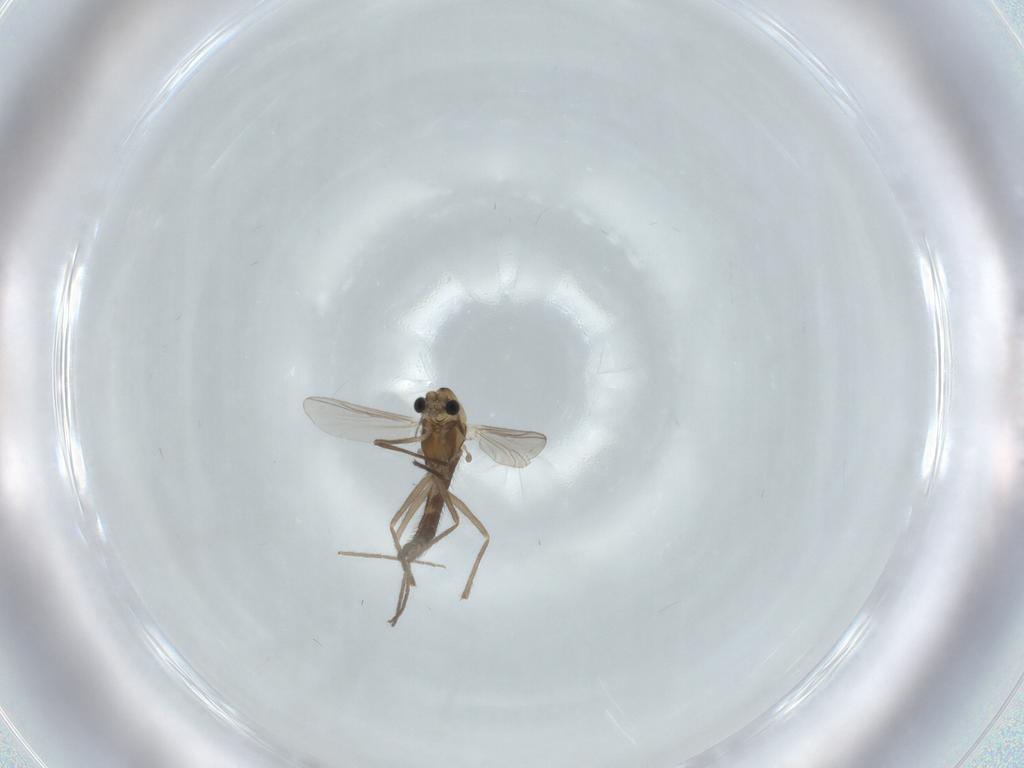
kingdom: Animalia
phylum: Arthropoda
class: Insecta
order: Diptera
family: Chironomidae
